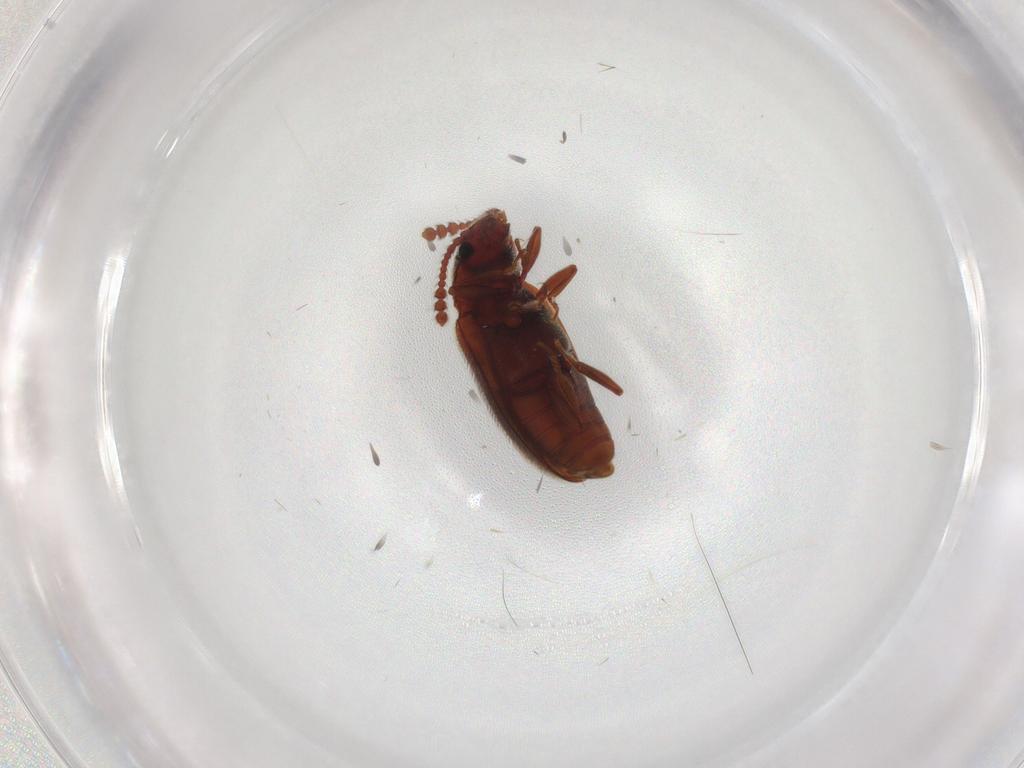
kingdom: Animalia
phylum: Arthropoda
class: Insecta
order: Coleoptera
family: Erotylidae
